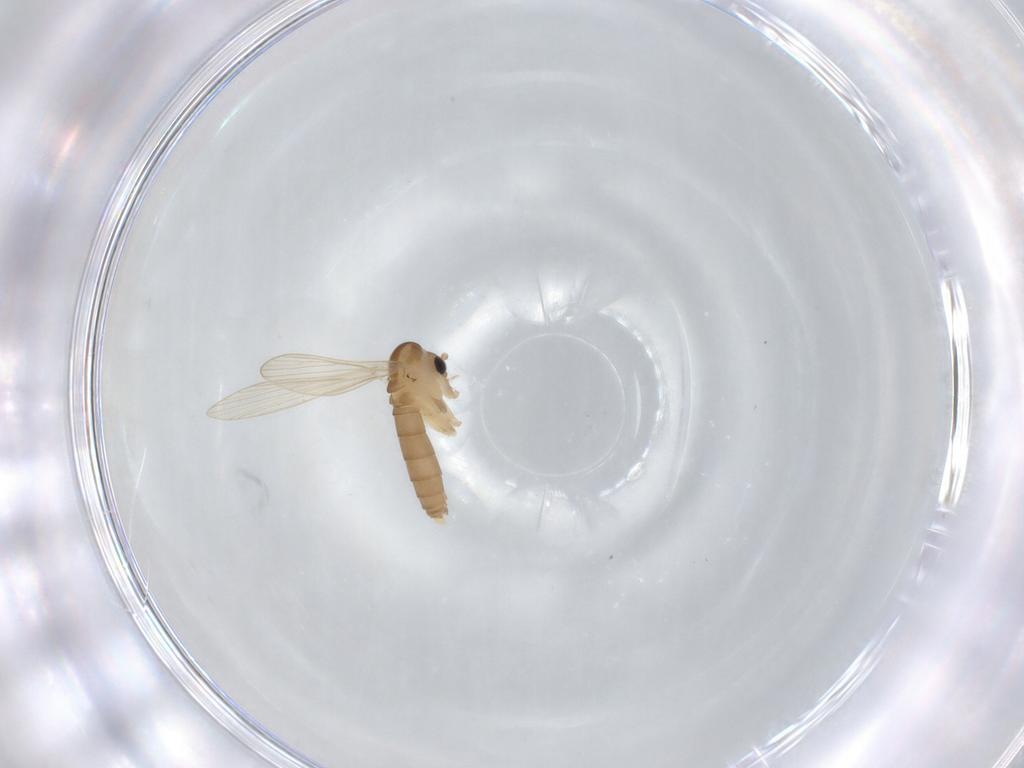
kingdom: Animalia
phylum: Arthropoda
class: Insecta
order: Diptera
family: Psychodidae
